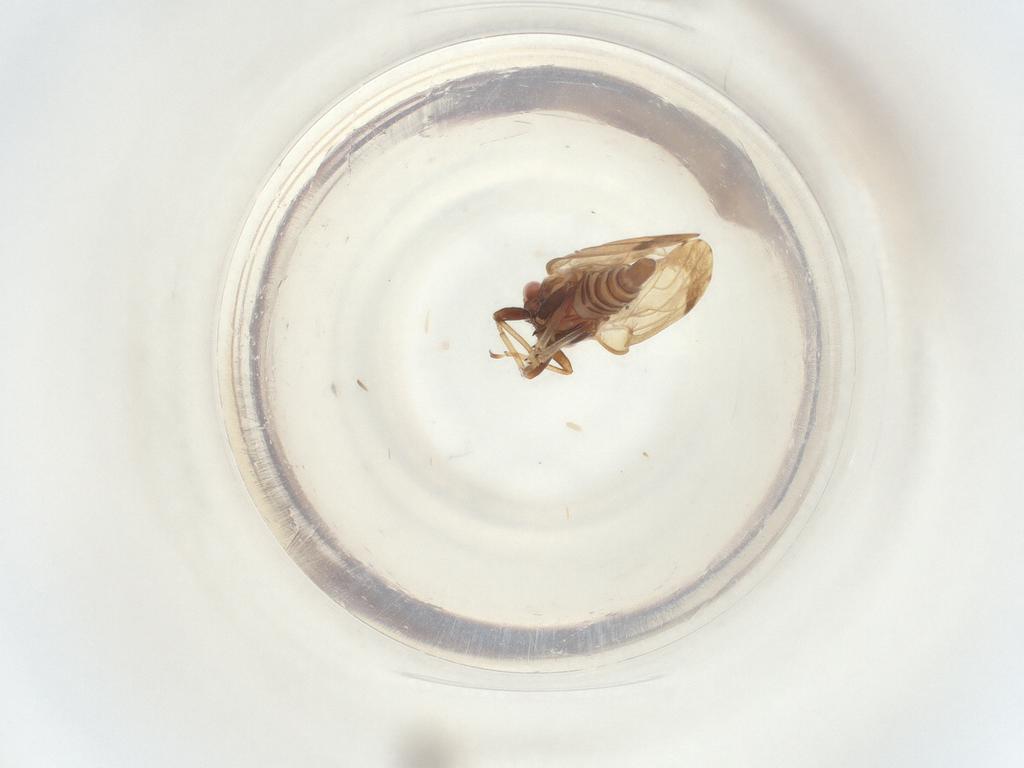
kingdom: Animalia
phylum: Arthropoda
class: Insecta
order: Diptera
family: Chironomidae
